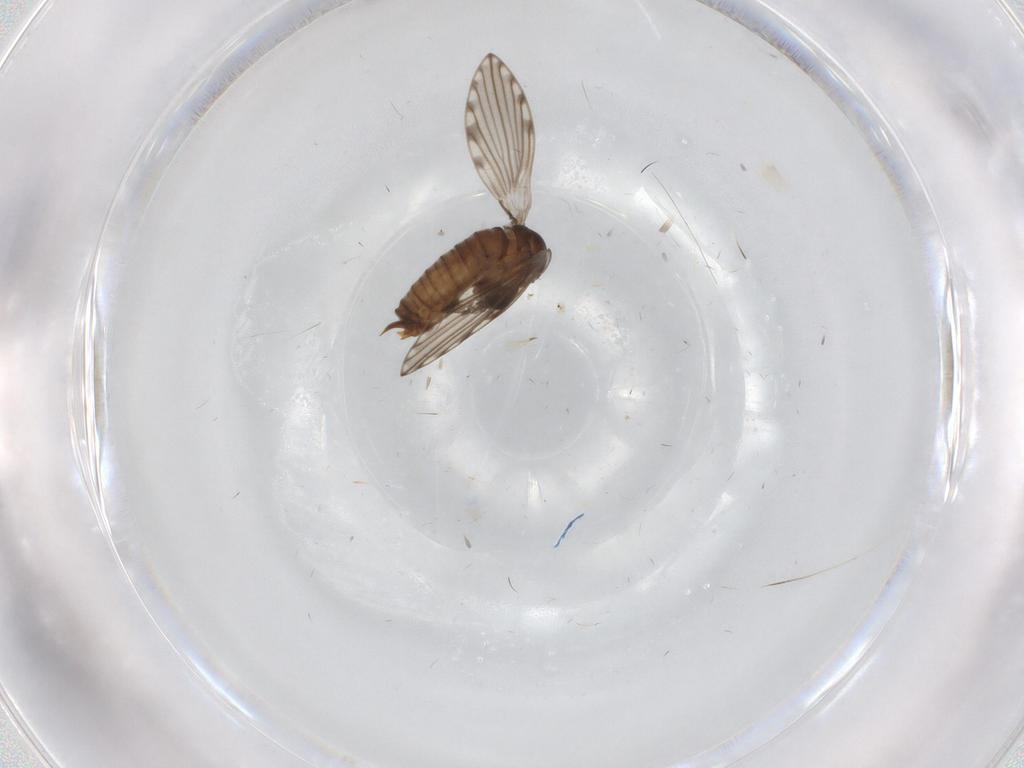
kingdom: Animalia
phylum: Arthropoda
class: Insecta
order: Diptera
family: Psychodidae
